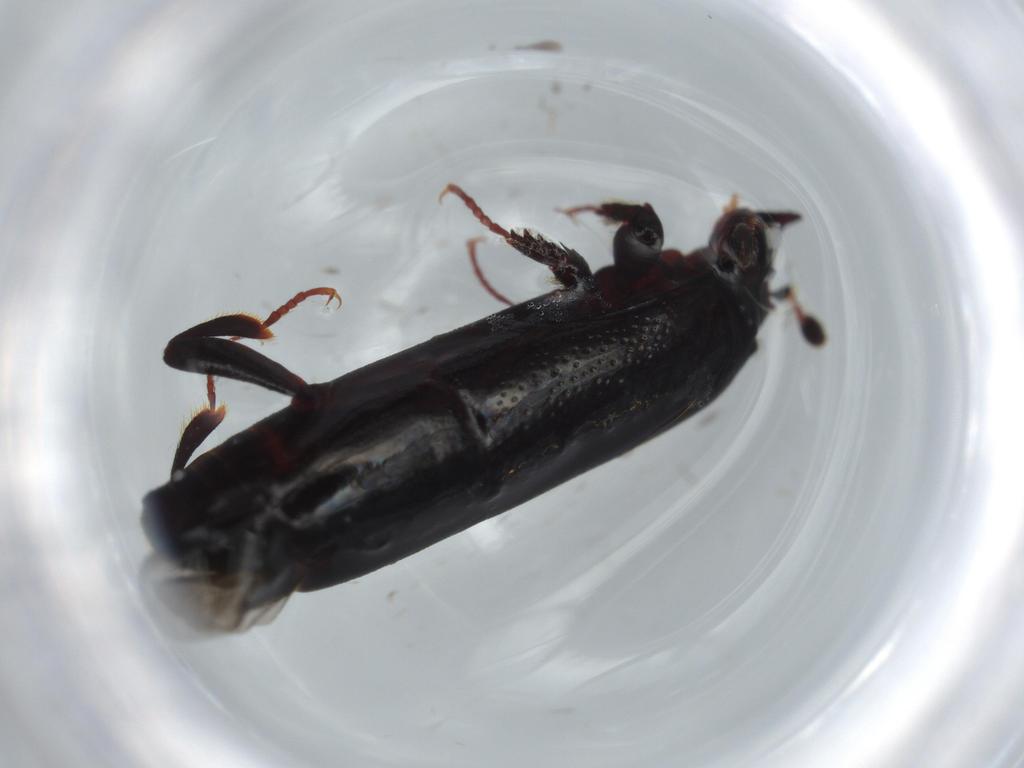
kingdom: Animalia
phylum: Arthropoda
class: Insecta
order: Coleoptera
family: Histeridae
